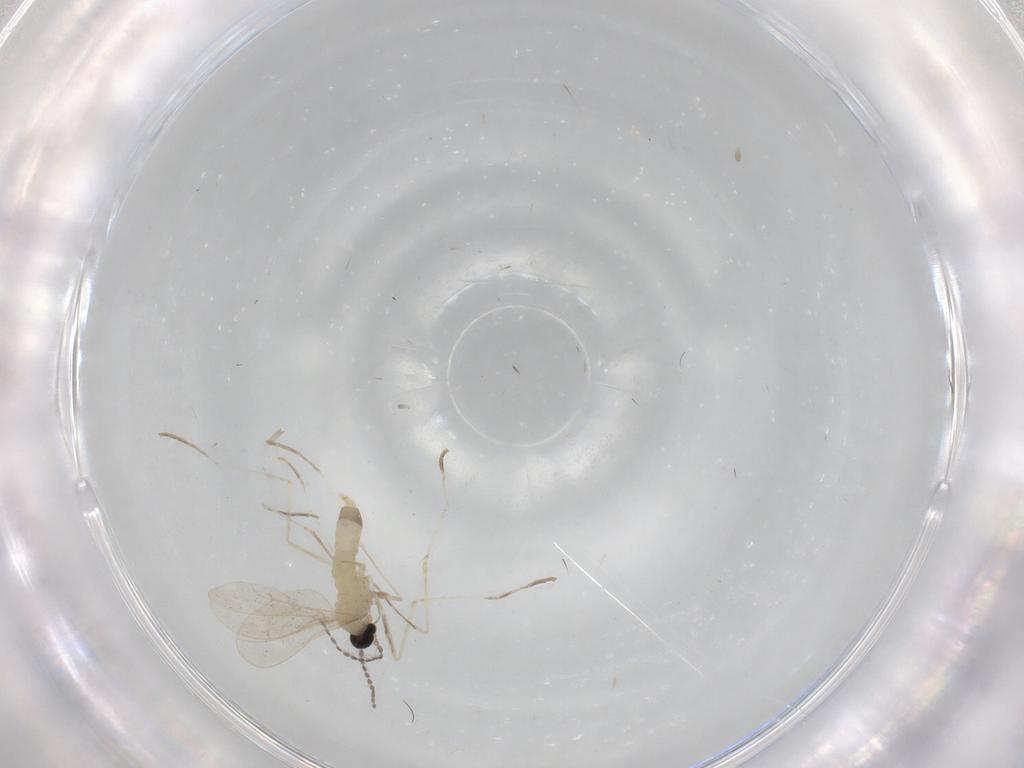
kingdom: Animalia
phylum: Arthropoda
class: Insecta
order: Diptera
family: Cecidomyiidae
